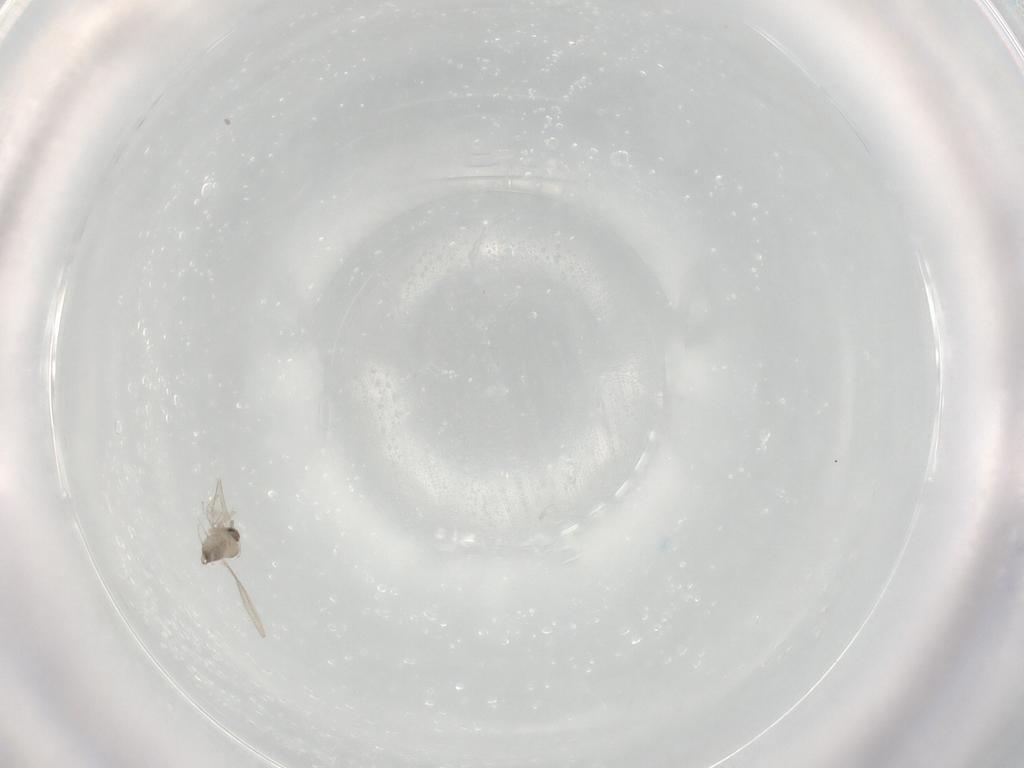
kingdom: Animalia
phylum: Arthropoda
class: Insecta
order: Diptera
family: Cecidomyiidae
